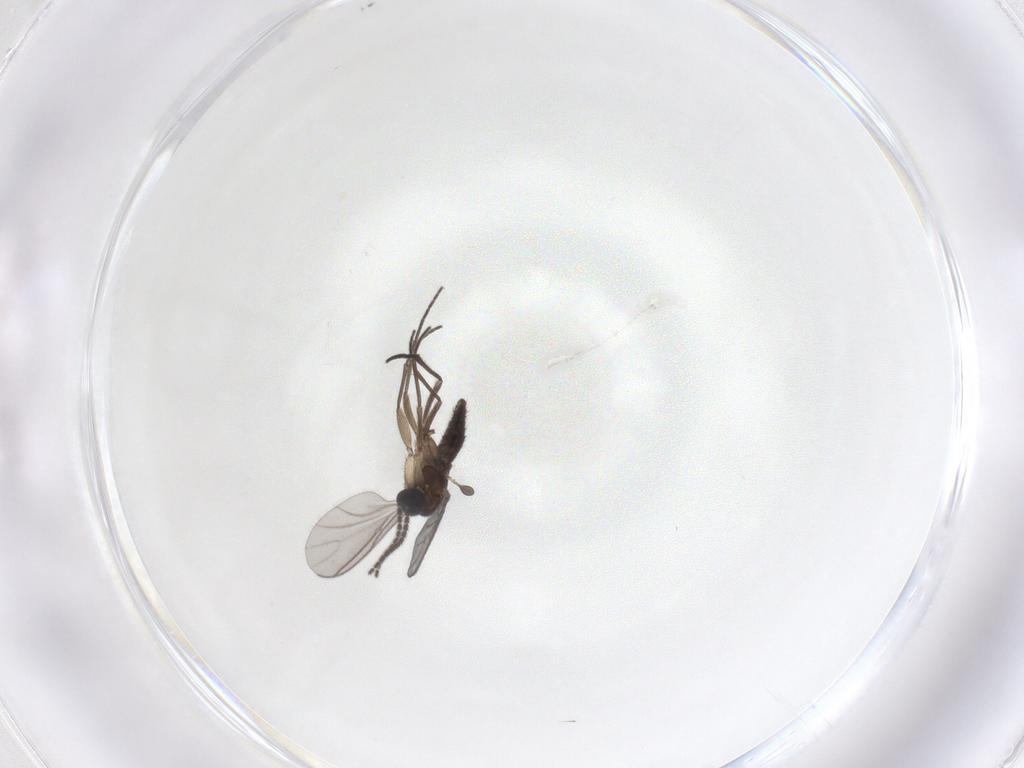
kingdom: Animalia
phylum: Arthropoda
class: Insecta
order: Diptera
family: Sciaridae
